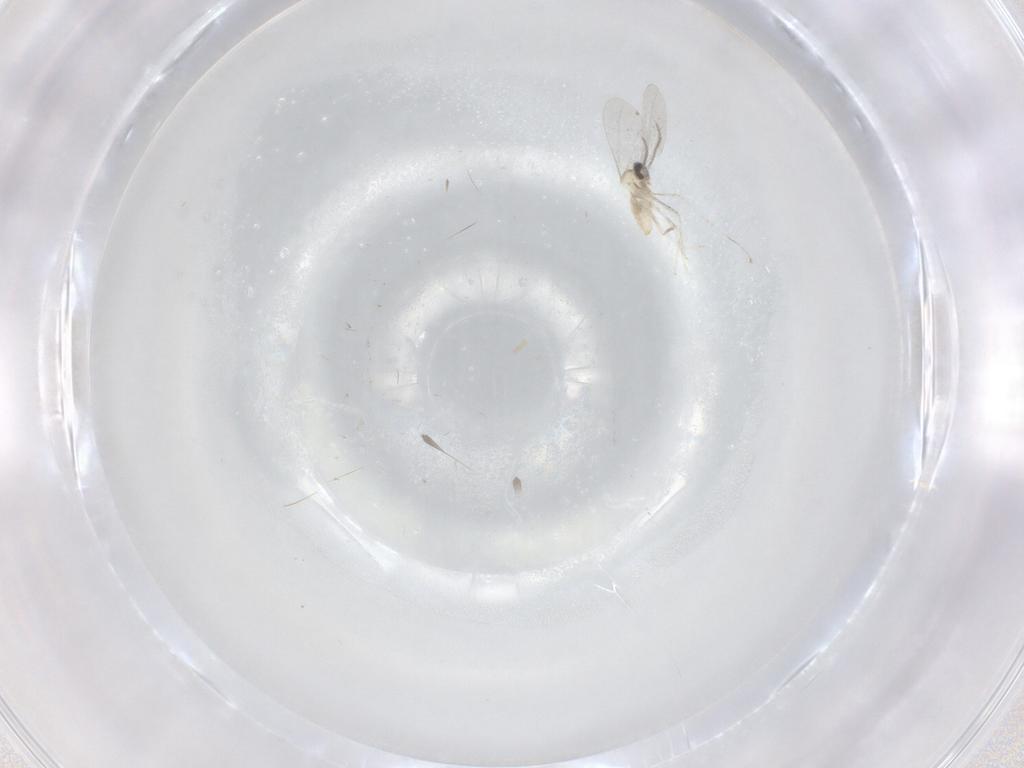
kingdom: Animalia
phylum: Arthropoda
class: Insecta
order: Diptera
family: Cecidomyiidae
